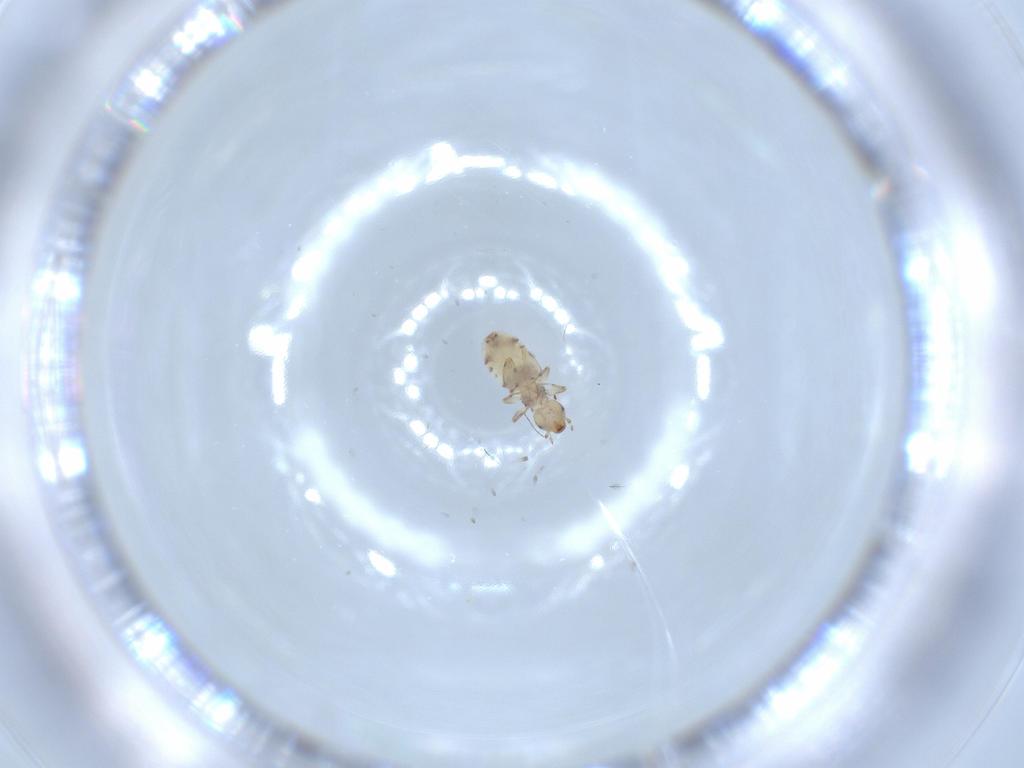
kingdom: Animalia
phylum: Arthropoda
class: Insecta
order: Psocodea
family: Liposcelididae
